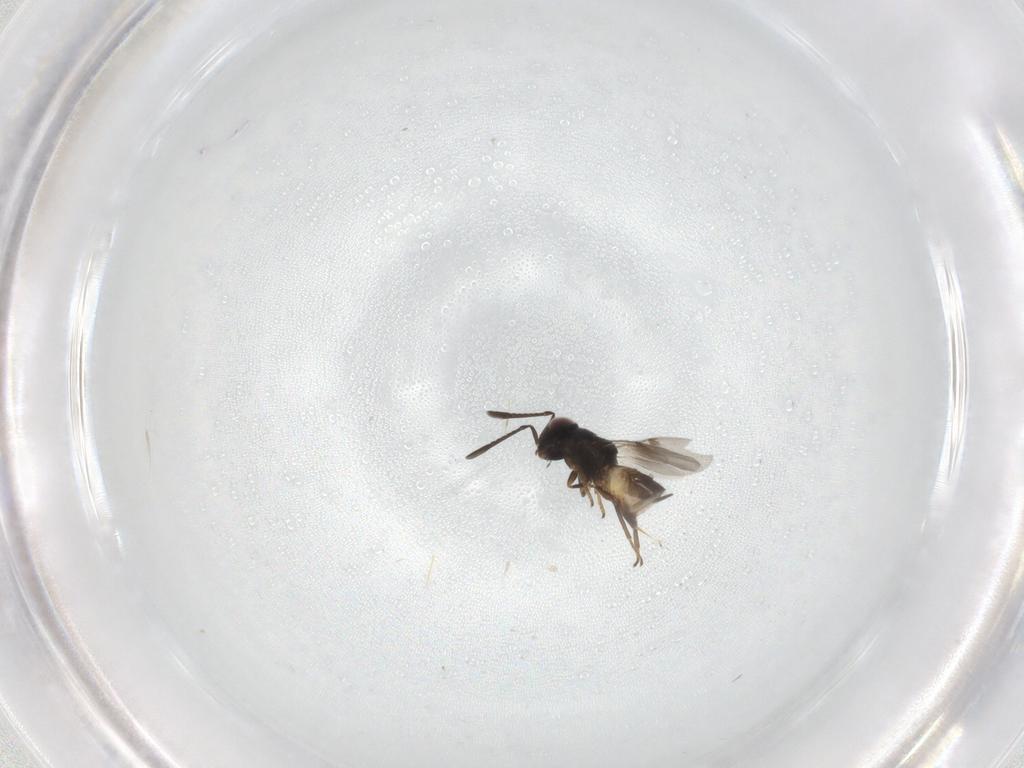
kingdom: Animalia
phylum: Arthropoda
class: Insecta
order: Hymenoptera
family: Encyrtidae
